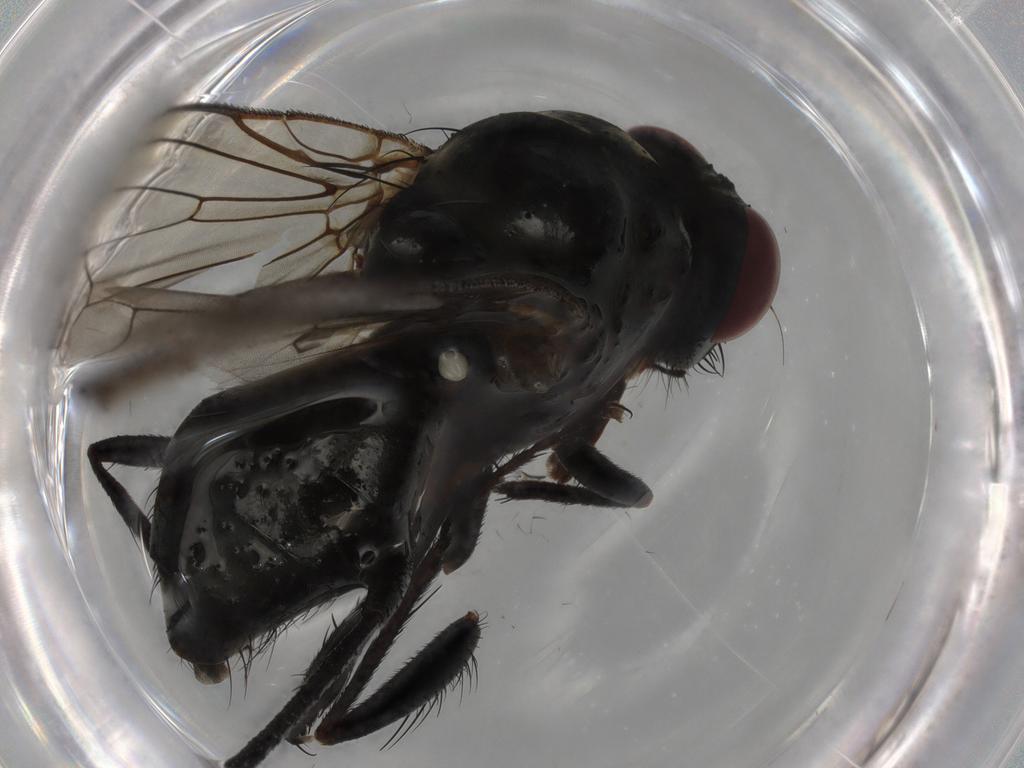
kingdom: Animalia
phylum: Arthropoda
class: Insecta
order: Diptera
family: Anthomyiidae
